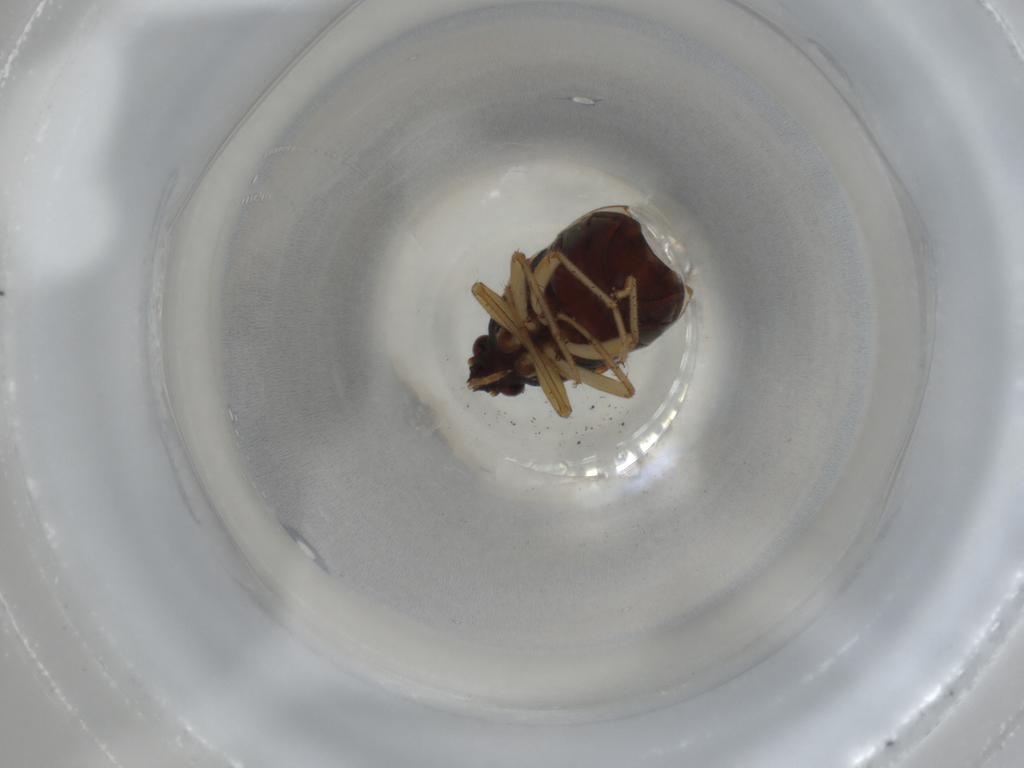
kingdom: Animalia
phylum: Arthropoda
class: Insecta
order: Hemiptera
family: Rhyparochromidae
